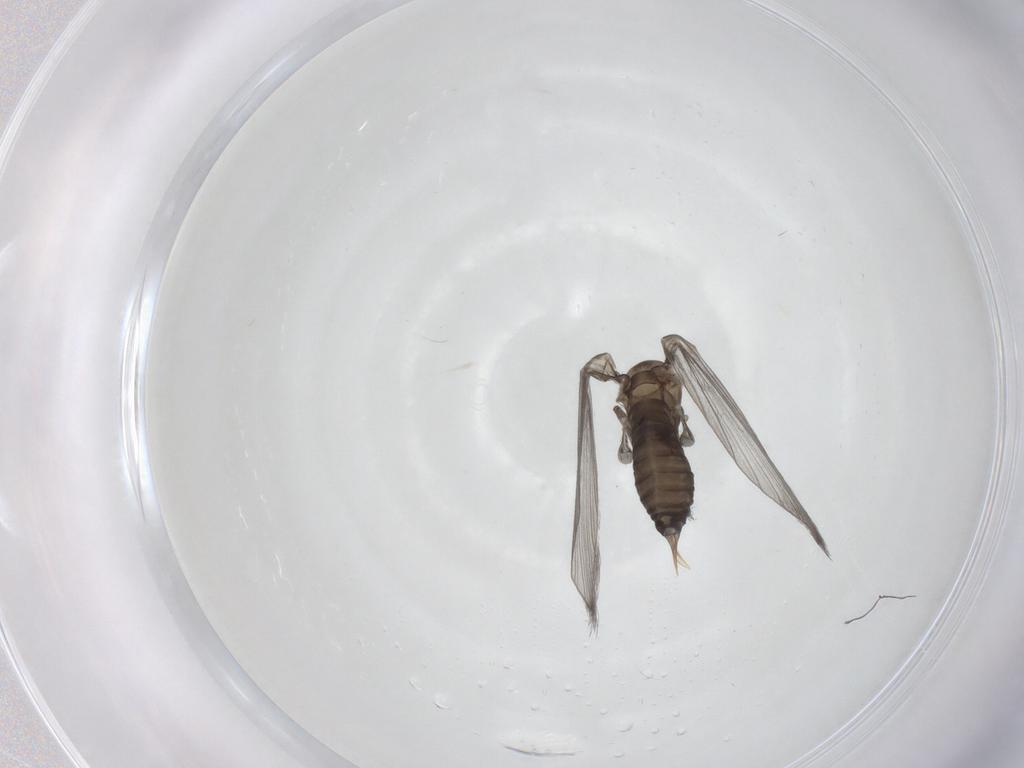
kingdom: Animalia
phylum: Arthropoda
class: Insecta
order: Diptera
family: Psychodidae
